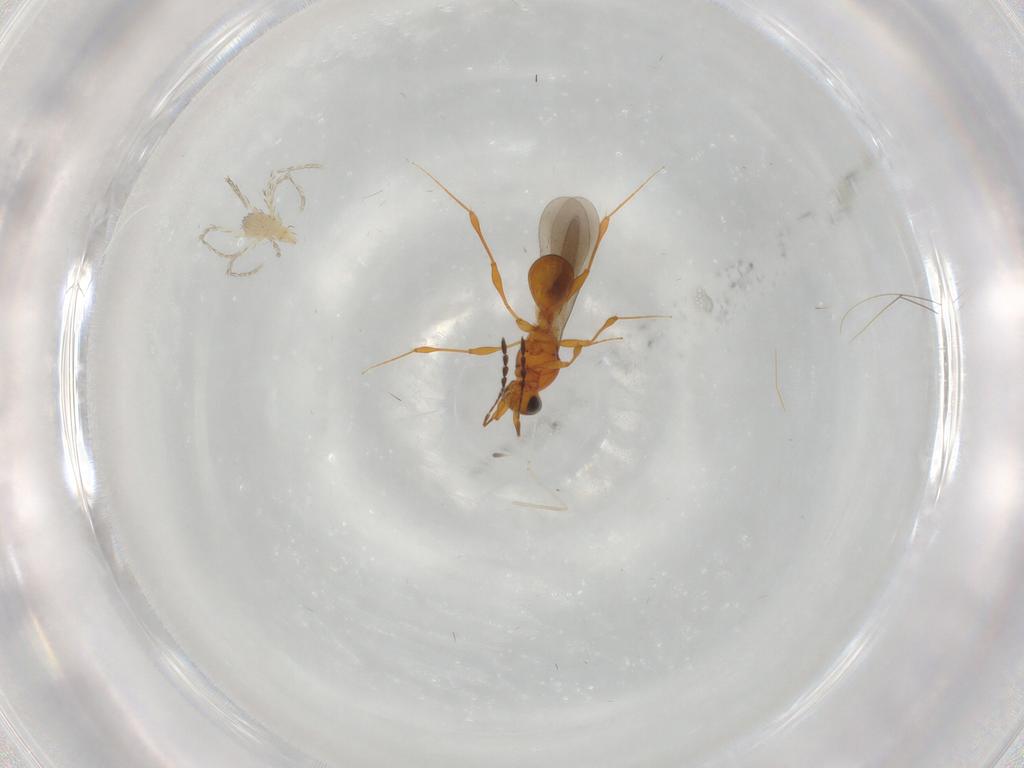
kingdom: Animalia
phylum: Arthropoda
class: Insecta
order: Hymenoptera
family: Platygastridae
